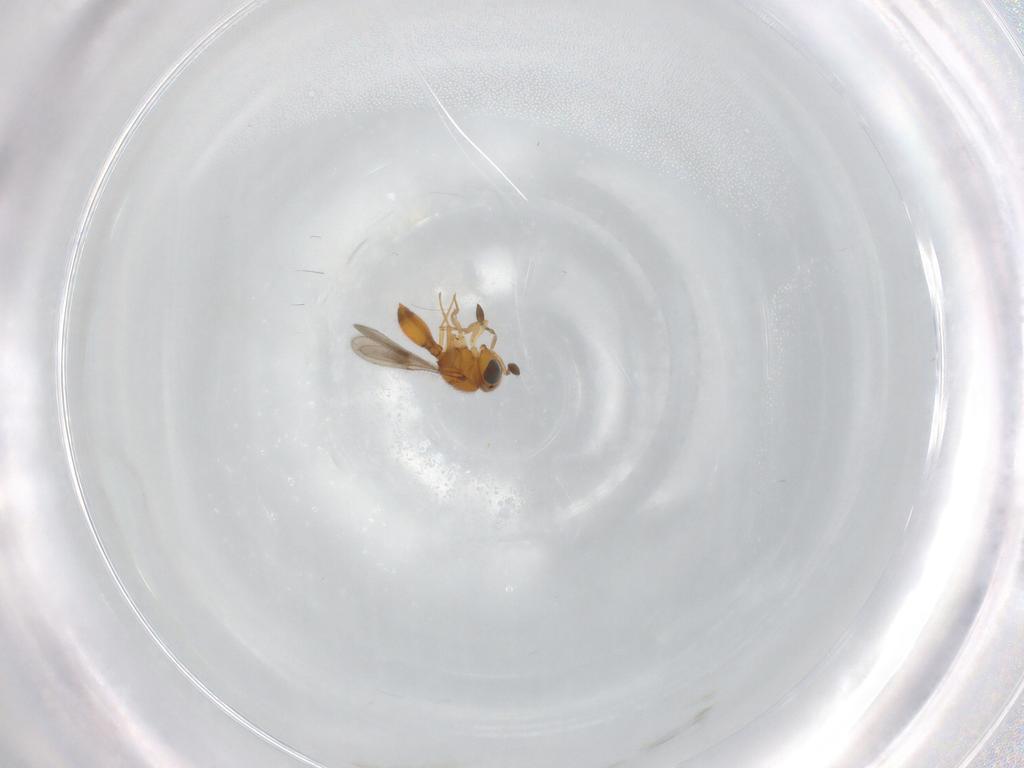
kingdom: Animalia
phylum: Arthropoda
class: Insecta
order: Hymenoptera
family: Scelionidae
